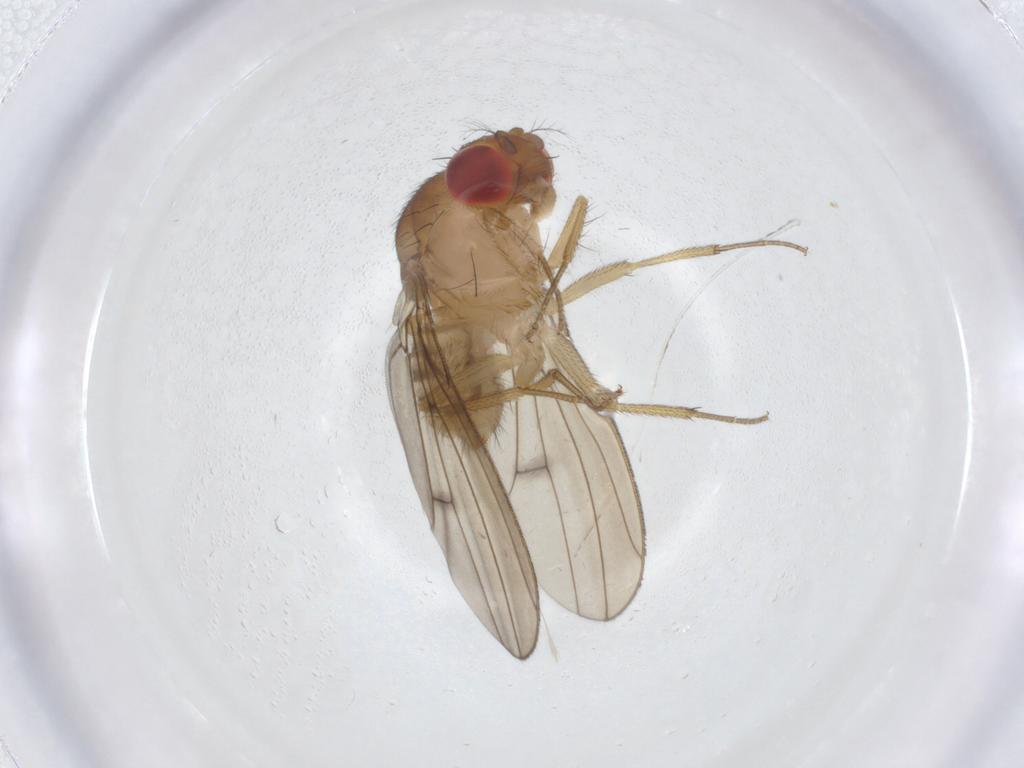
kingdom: Animalia
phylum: Arthropoda
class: Insecta
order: Diptera
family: Drosophilidae
